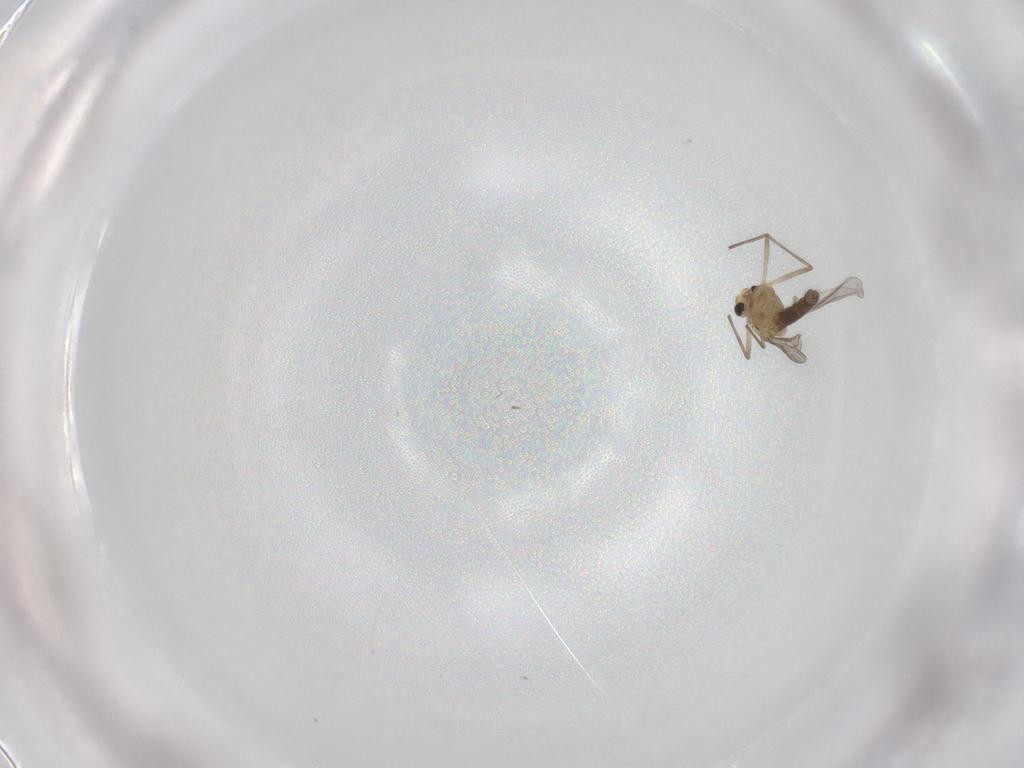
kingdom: Animalia
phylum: Arthropoda
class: Insecta
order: Diptera
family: Chironomidae
